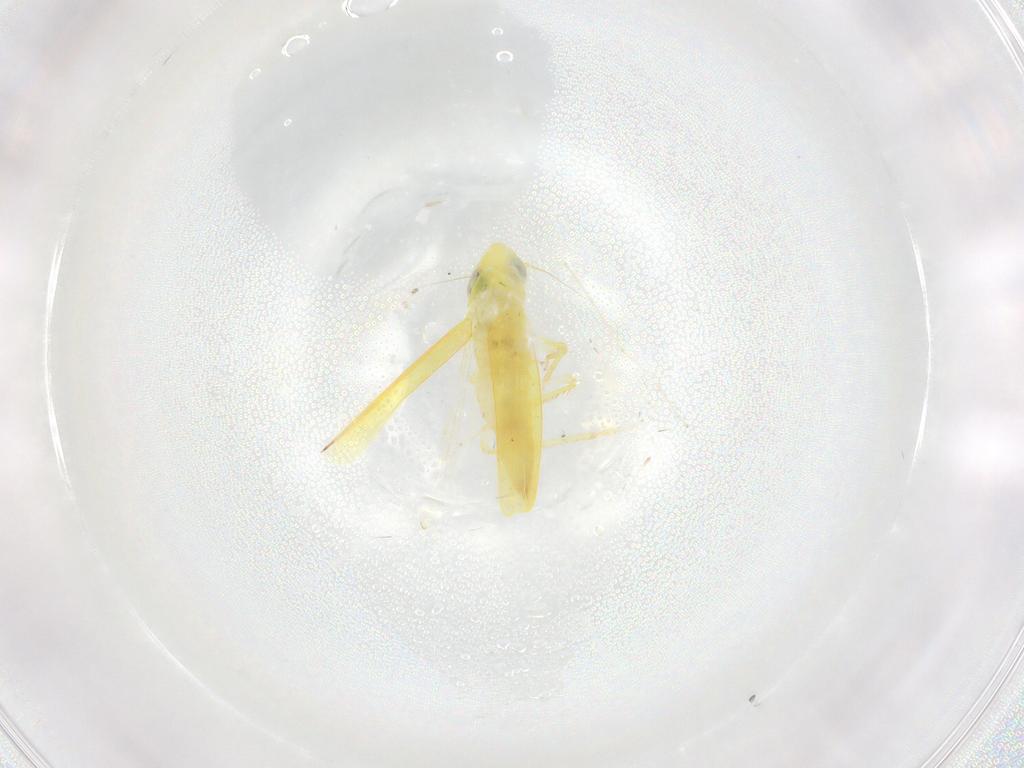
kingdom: Animalia
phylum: Arthropoda
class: Insecta
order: Hemiptera
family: Cicadellidae
